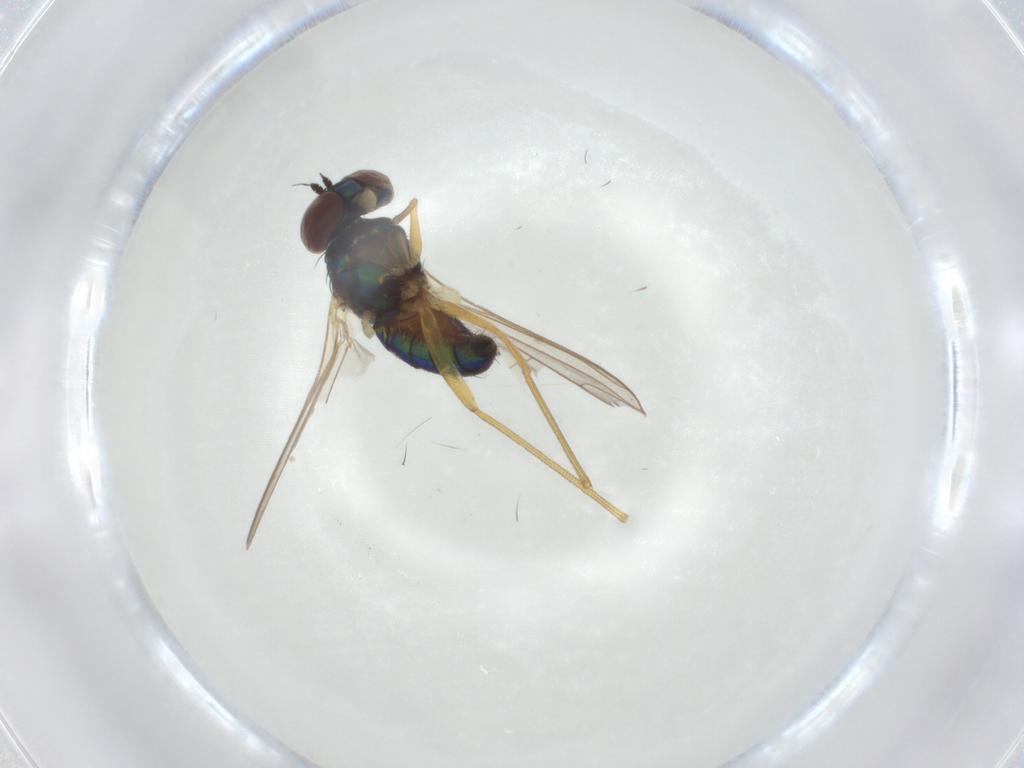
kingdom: Animalia
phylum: Arthropoda
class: Insecta
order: Diptera
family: Dolichopodidae
